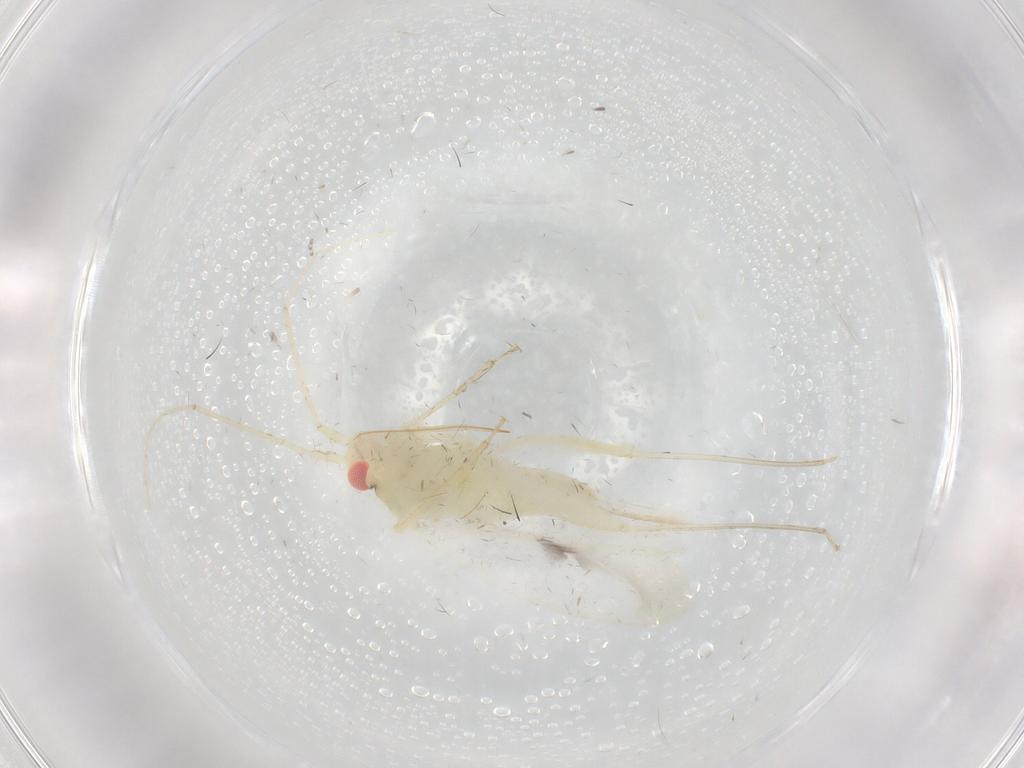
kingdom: Animalia
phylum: Arthropoda
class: Insecta
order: Hemiptera
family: Miridae
